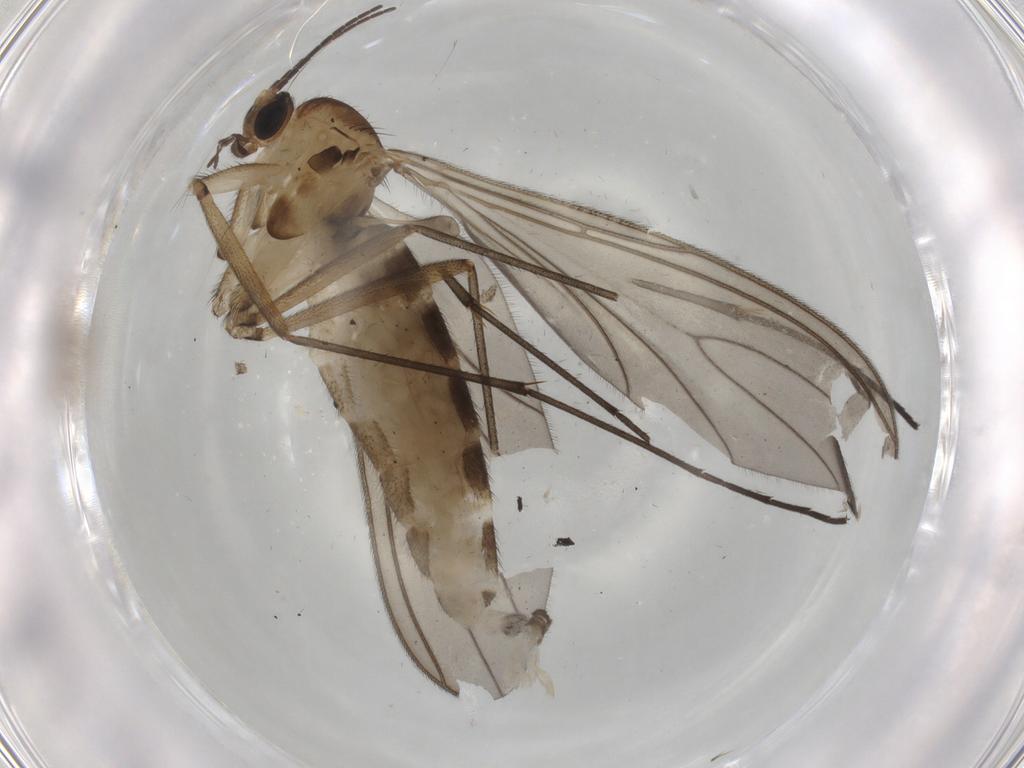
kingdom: Animalia
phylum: Arthropoda
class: Insecta
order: Diptera
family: Sciaridae
